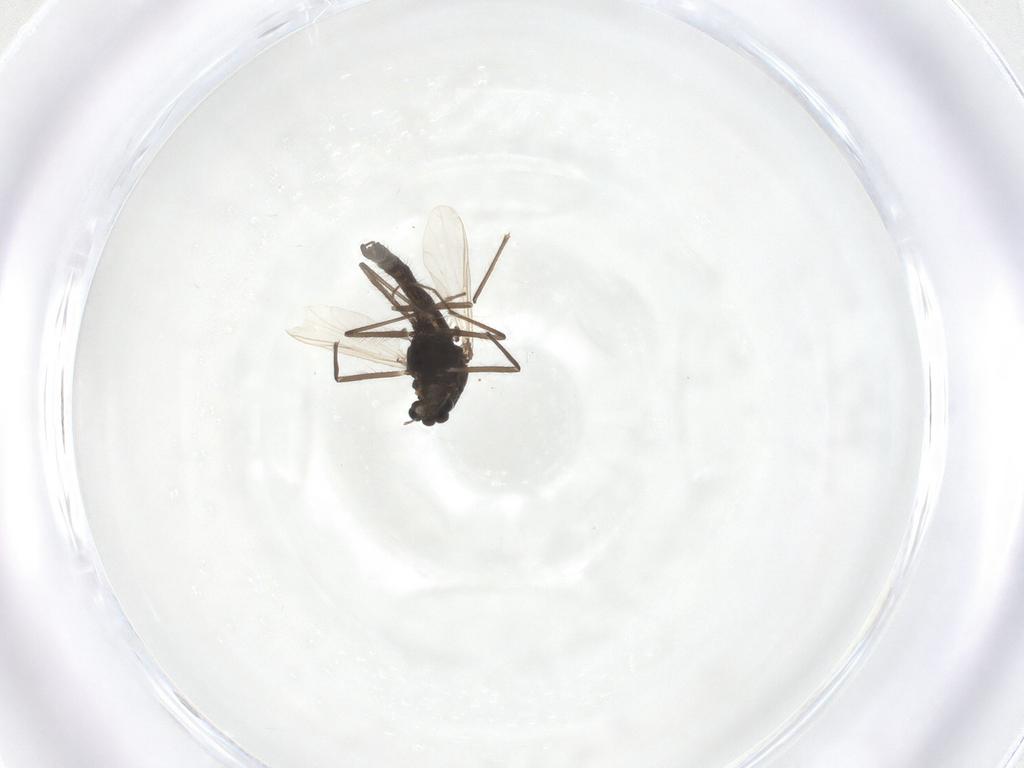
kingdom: Animalia
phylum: Arthropoda
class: Insecta
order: Diptera
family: Chironomidae
